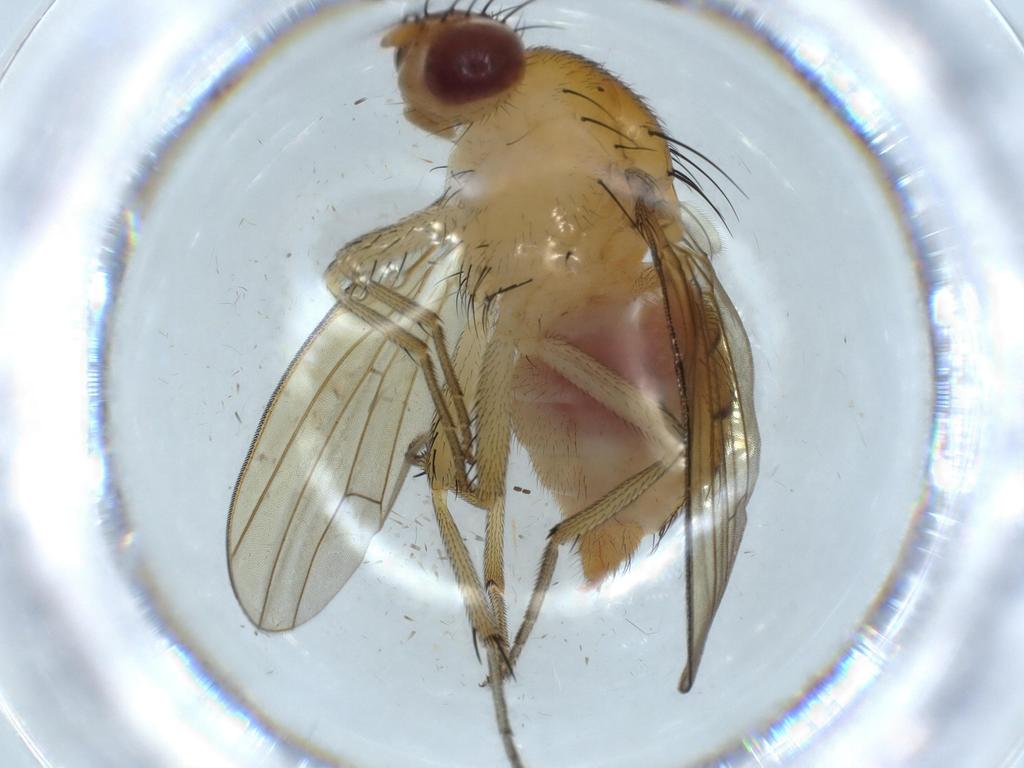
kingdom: Animalia
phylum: Arthropoda
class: Insecta
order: Diptera
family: Sciaridae
